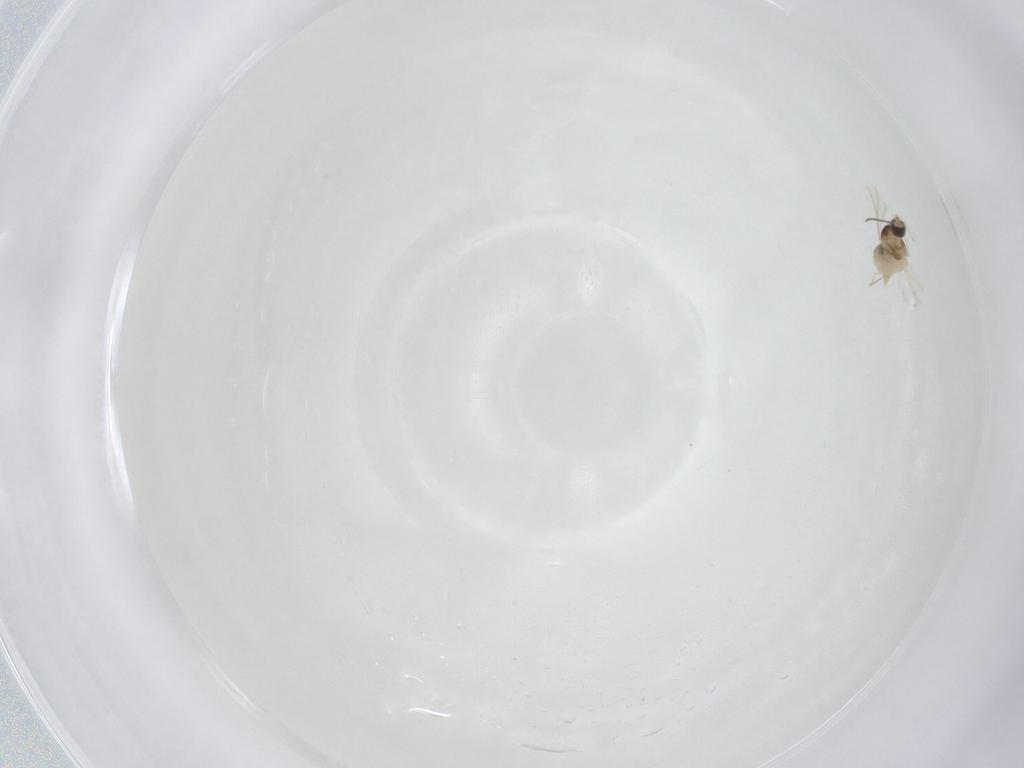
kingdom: Animalia
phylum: Arthropoda
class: Insecta
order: Diptera
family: Cecidomyiidae
